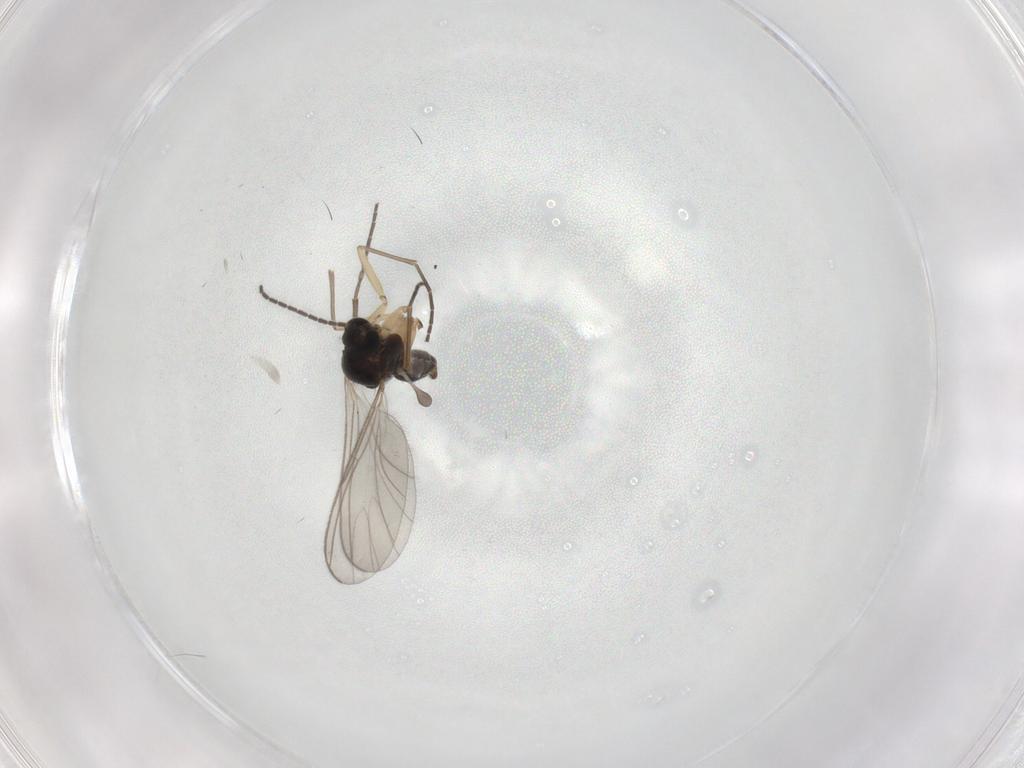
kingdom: Animalia
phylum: Arthropoda
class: Insecta
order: Diptera
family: Sciaridae
